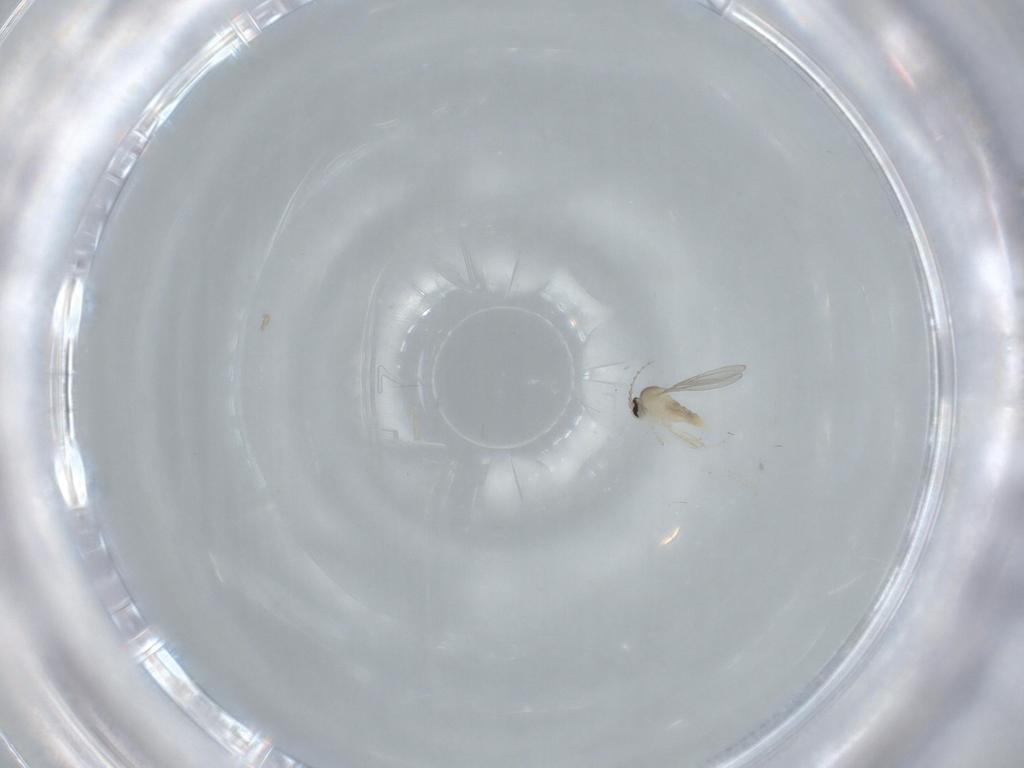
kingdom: Animalia
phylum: Arthropoda
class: Insecta
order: Diptera
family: Cecidomyiidae
